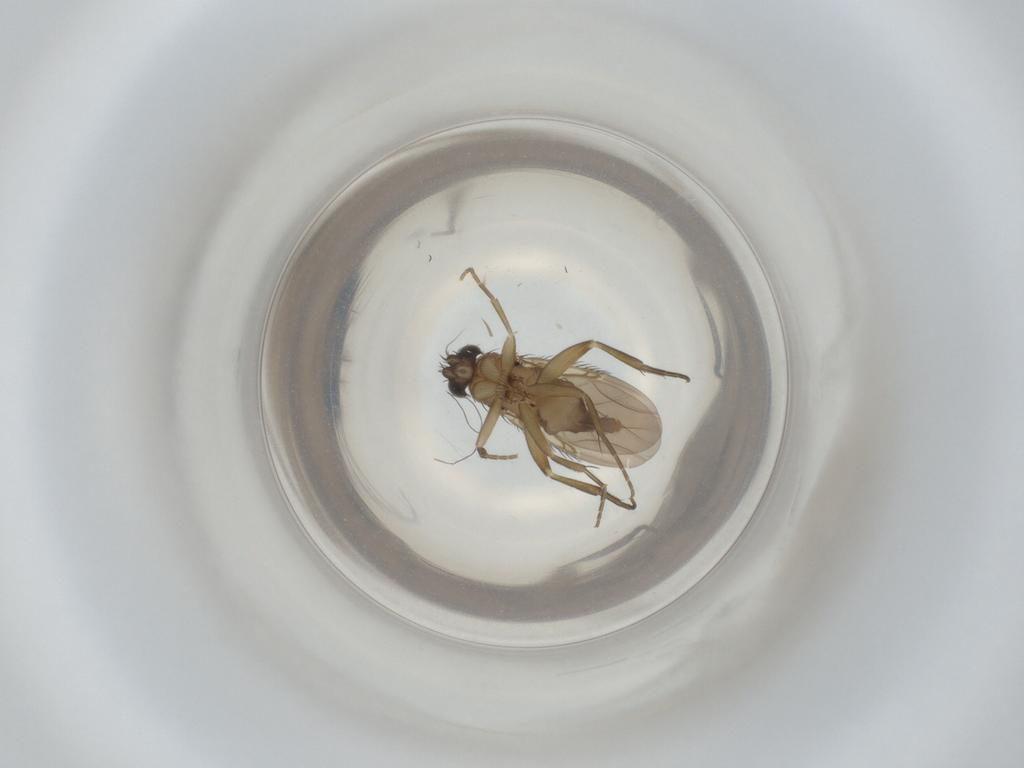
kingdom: Animalia
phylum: Arthropoda
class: Insecta
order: Diptera
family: Phoridae
